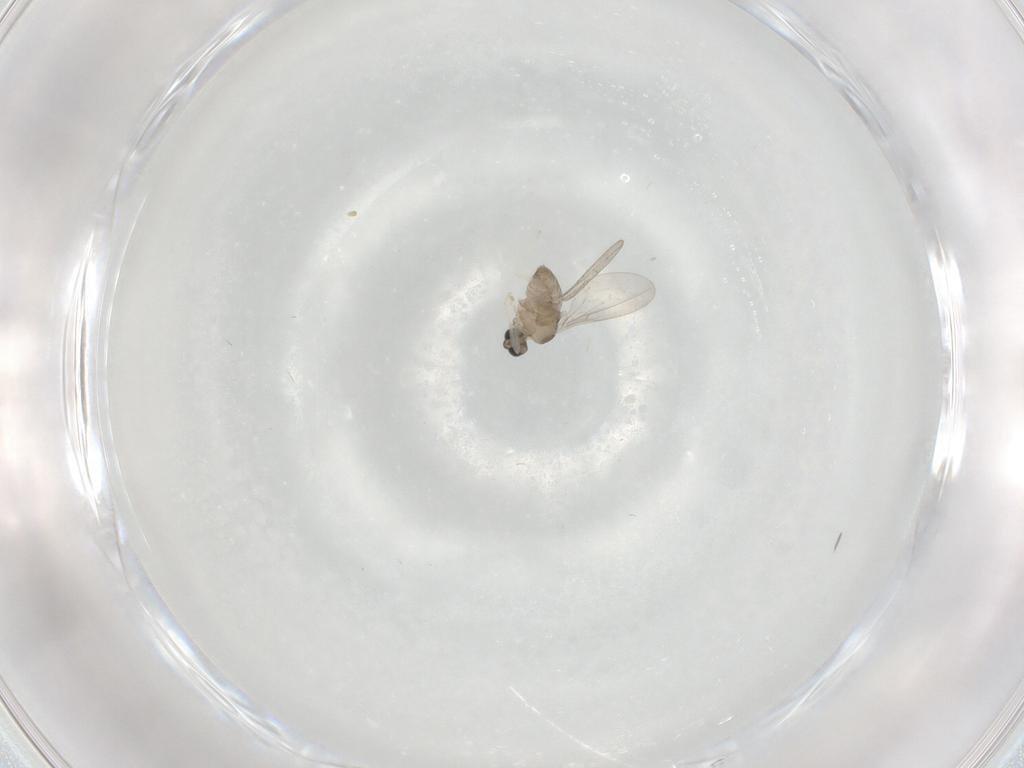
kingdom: Animalia
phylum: Arthropoda
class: Insecta
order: Diptera
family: Cecidomyiidae
